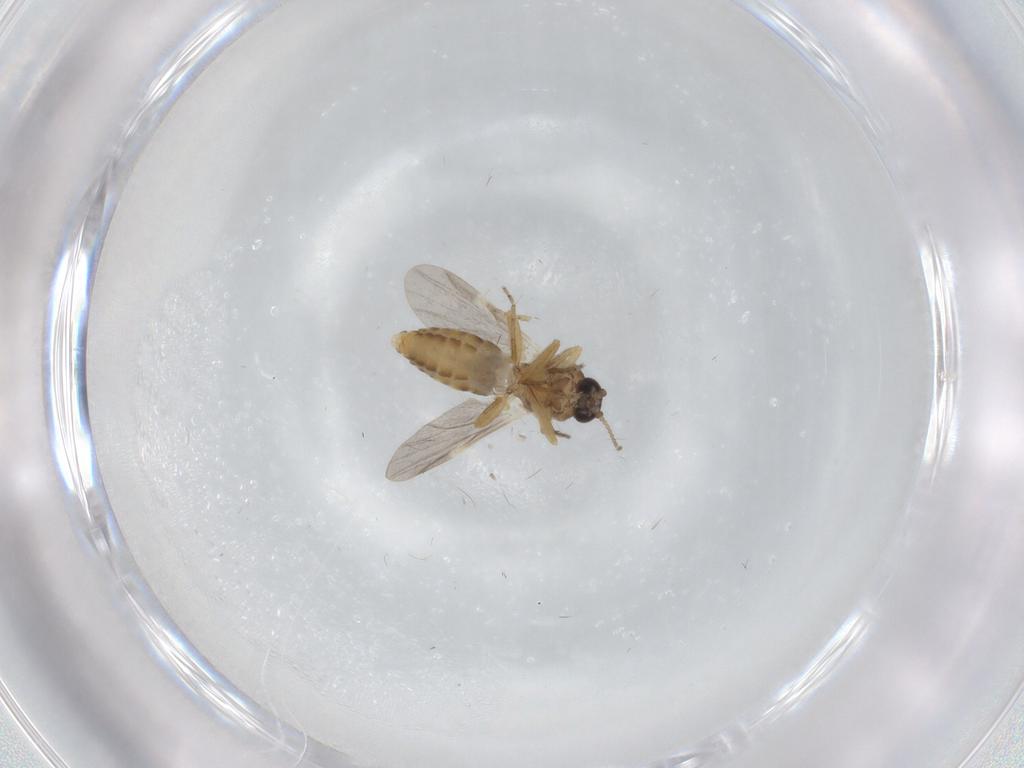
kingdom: Animalia
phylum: Arthropoda
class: Insecta
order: Diptera
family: Ceratopogonidae
